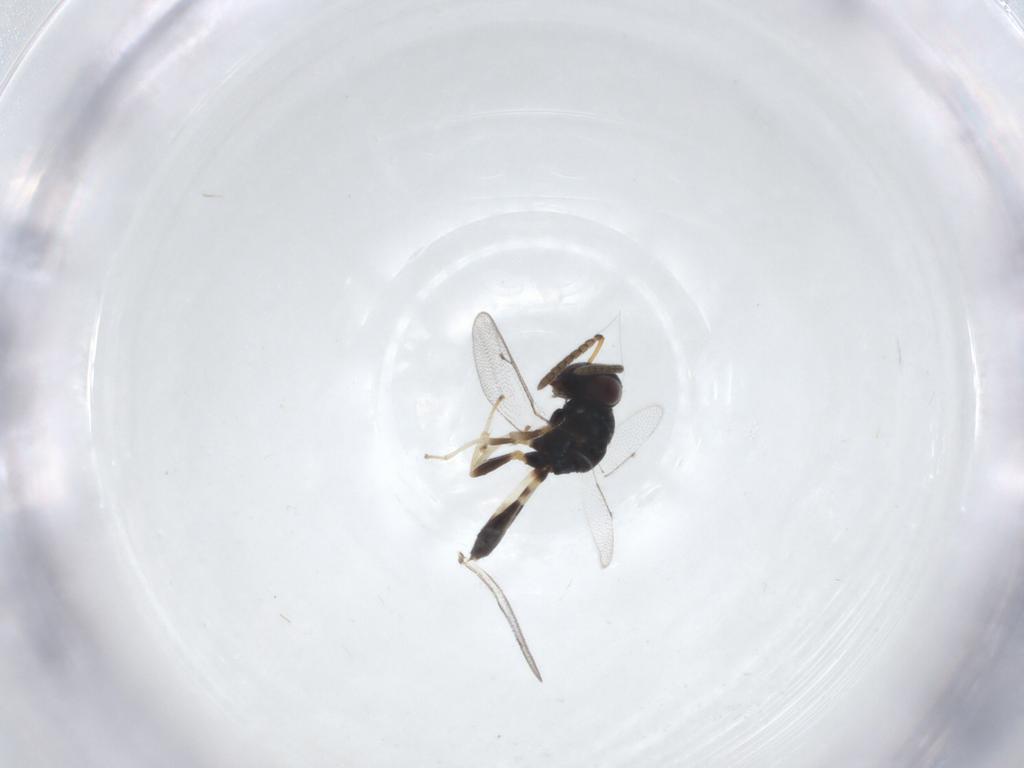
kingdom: Animalia
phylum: Arthropoda
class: Insecta
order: Hymenoptera
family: Pteromalidae
